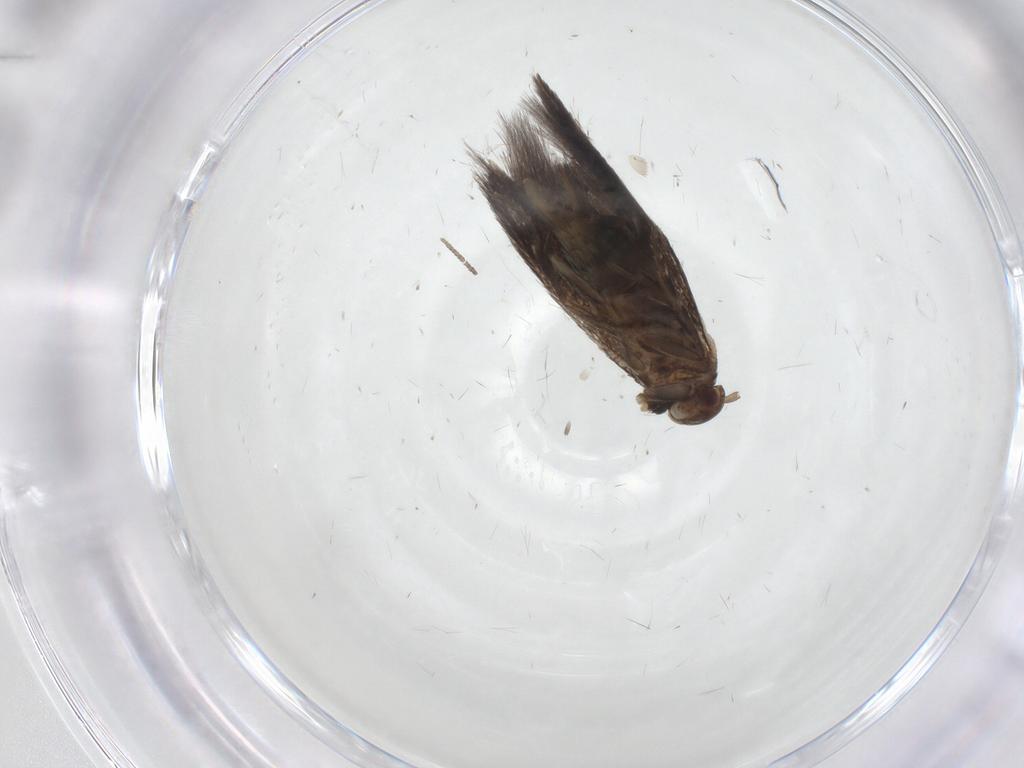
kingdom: Animalia
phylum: Arthropoda
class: Insecta
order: Lepidoptera
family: Elachistidae
